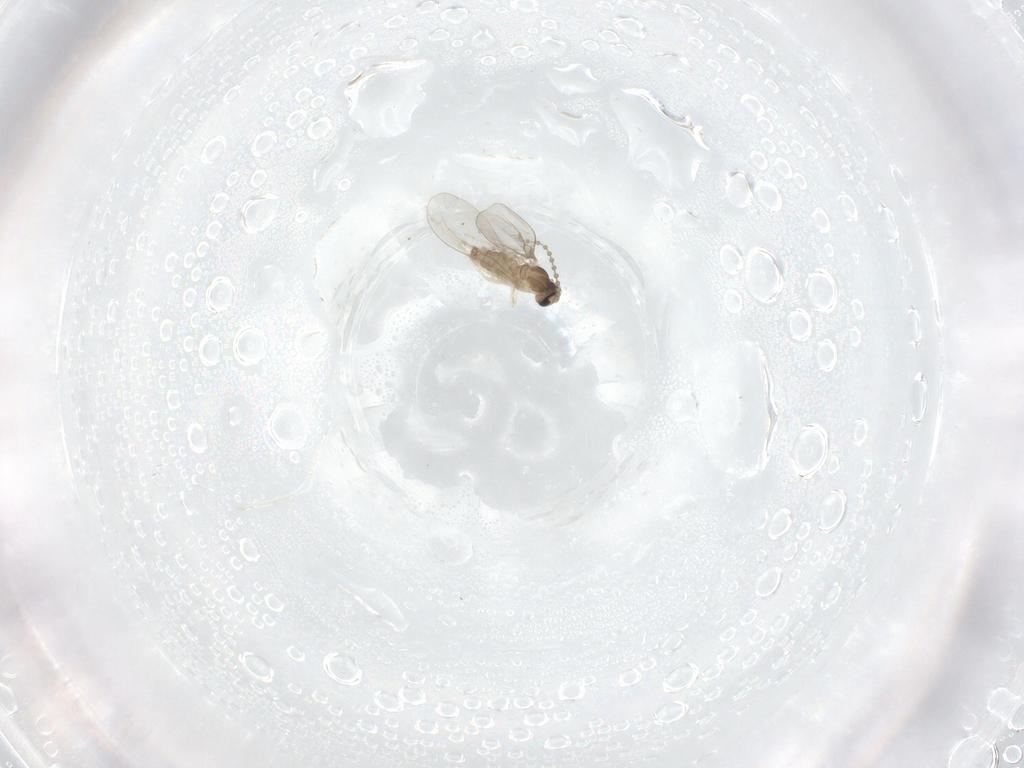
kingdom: Animalia
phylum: Arthropoda
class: Insecta
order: Diptera
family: Cecidomyiidae
